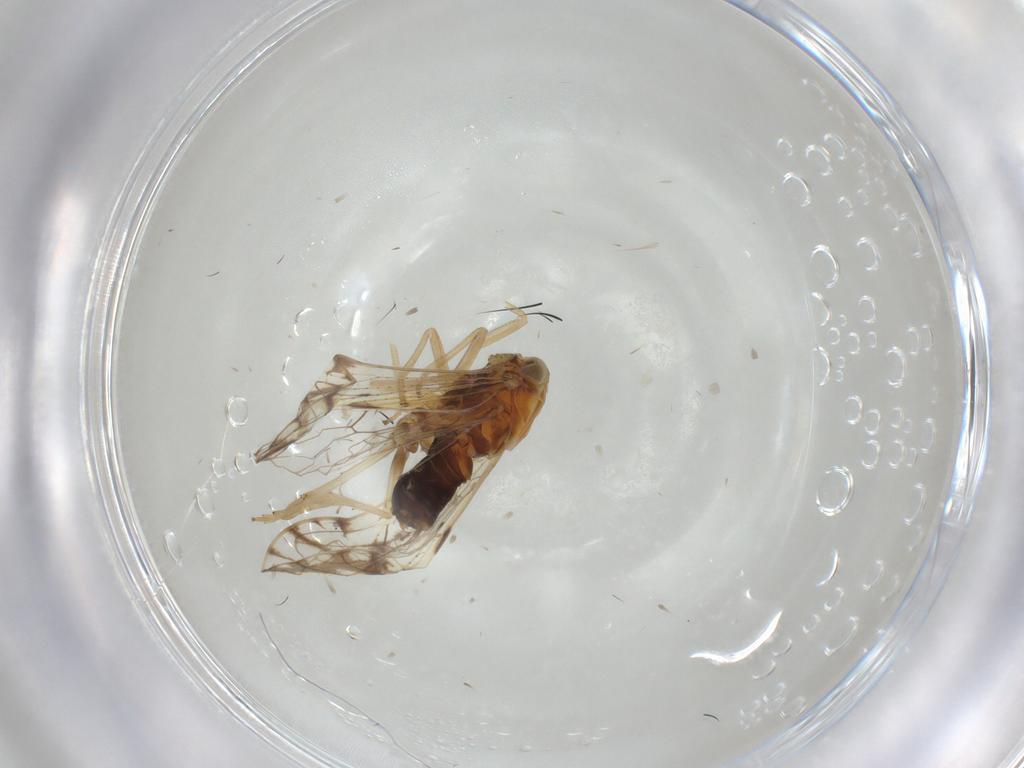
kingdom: Animalia
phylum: Arthropoda
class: Insecta
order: Hemiptera
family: Delphacidae
